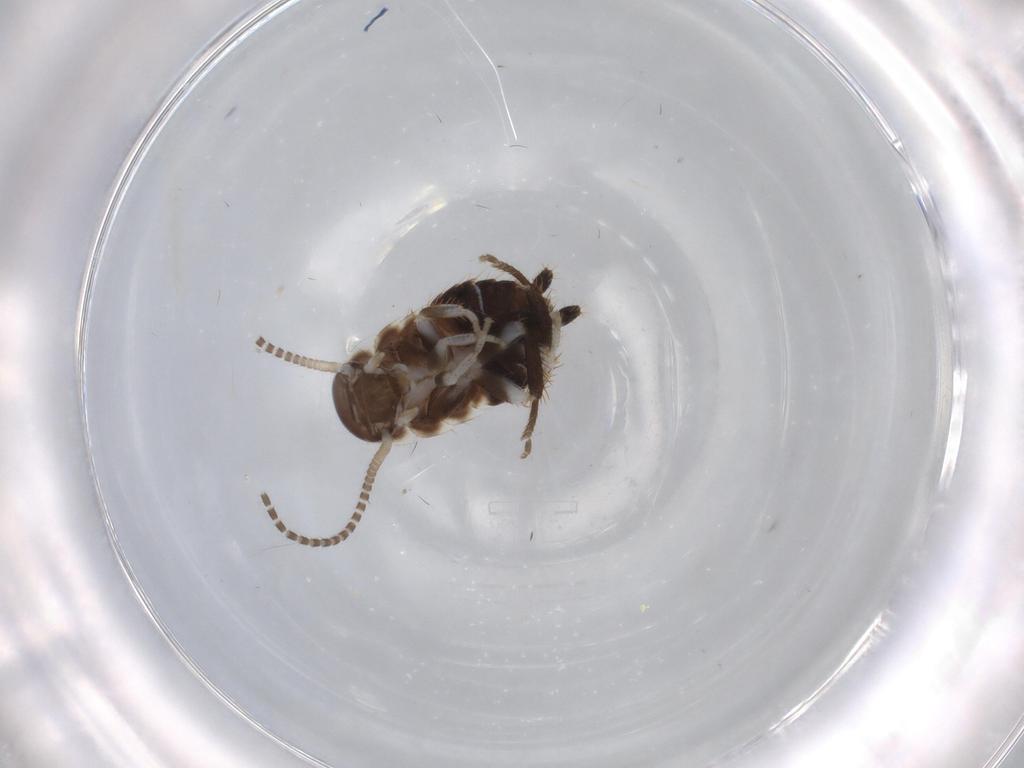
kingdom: Animalia
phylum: Arthropoda
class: Insecta
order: Blattodea
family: Ectobiidae
